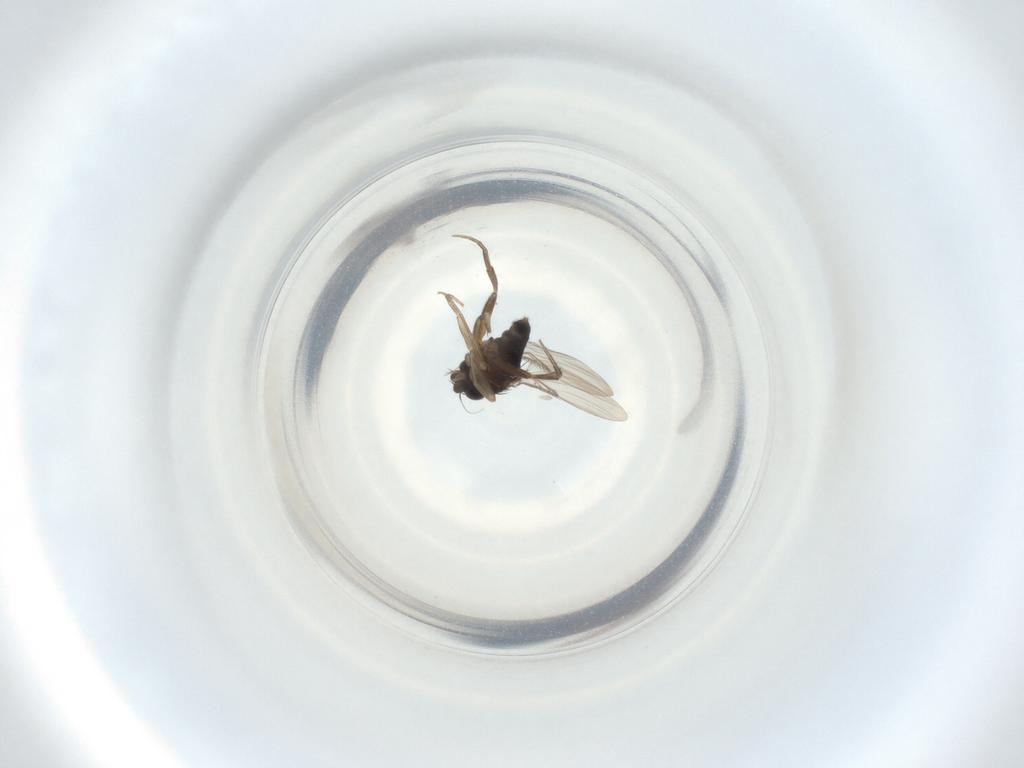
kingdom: Animalia
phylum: Arthropoda
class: Insecta
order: Diptera
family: Phoridae
